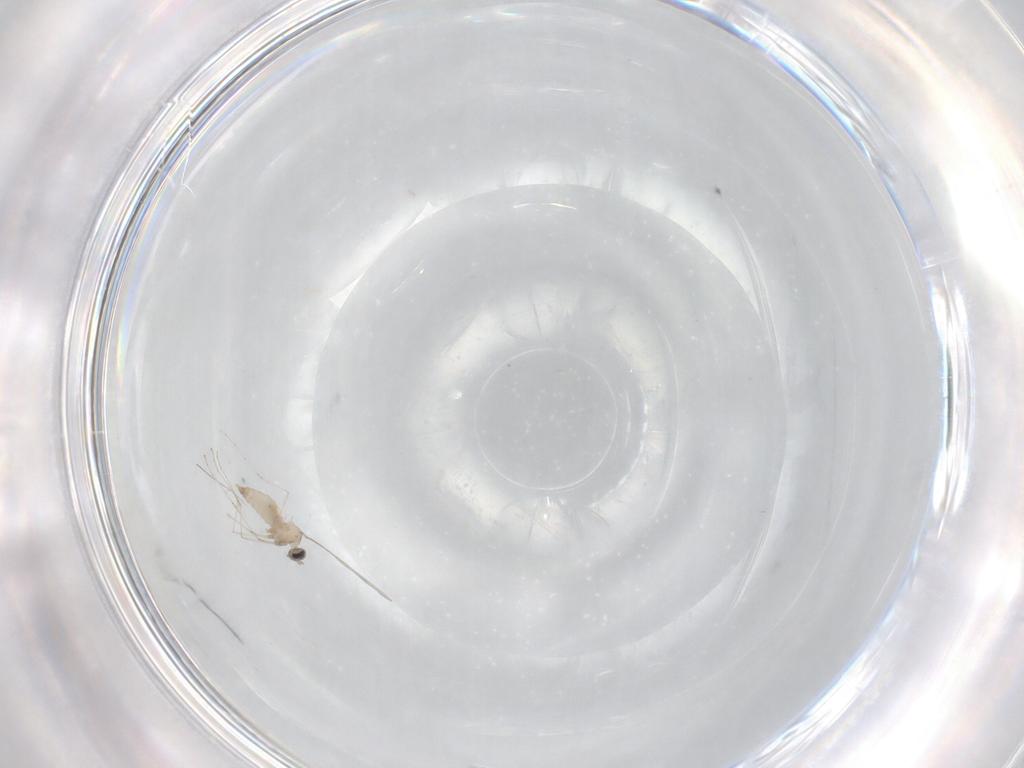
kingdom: Animalia
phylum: Arthropoda
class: Insecta
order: Diptera
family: Cecidomyiidae
